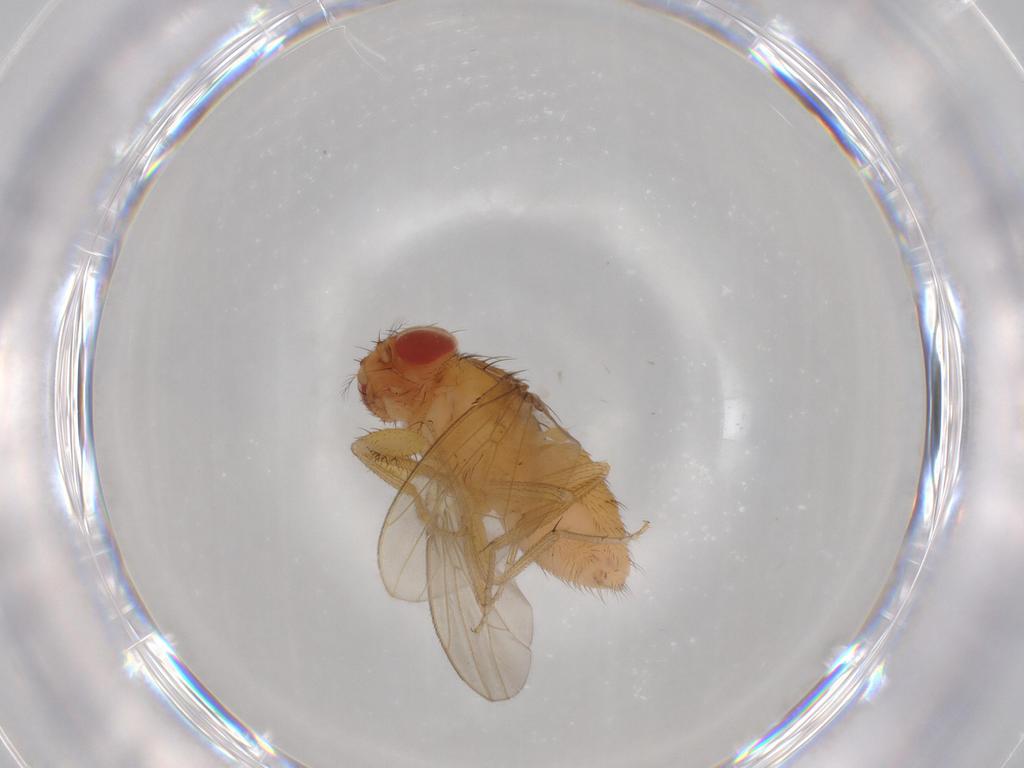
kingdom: Animalia
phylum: Arthropoda
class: Insecta
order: Diptera
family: Drosophilidae
